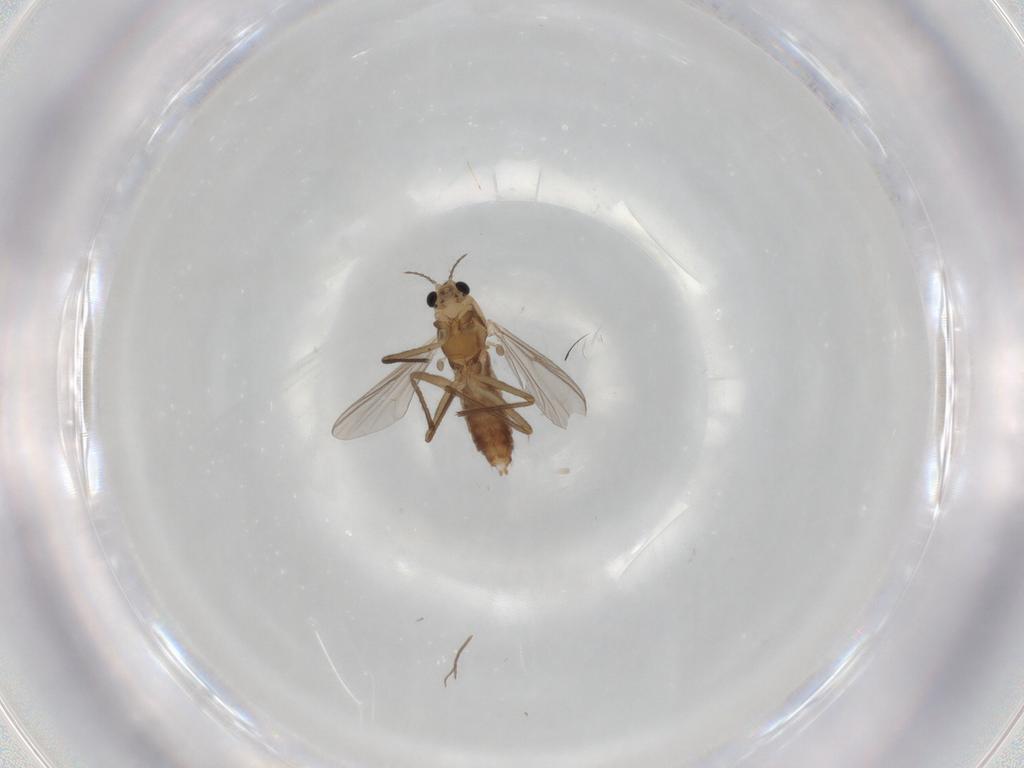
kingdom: Animalia
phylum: Arthropoda
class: Insecta
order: Diptera
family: Chironomidae
